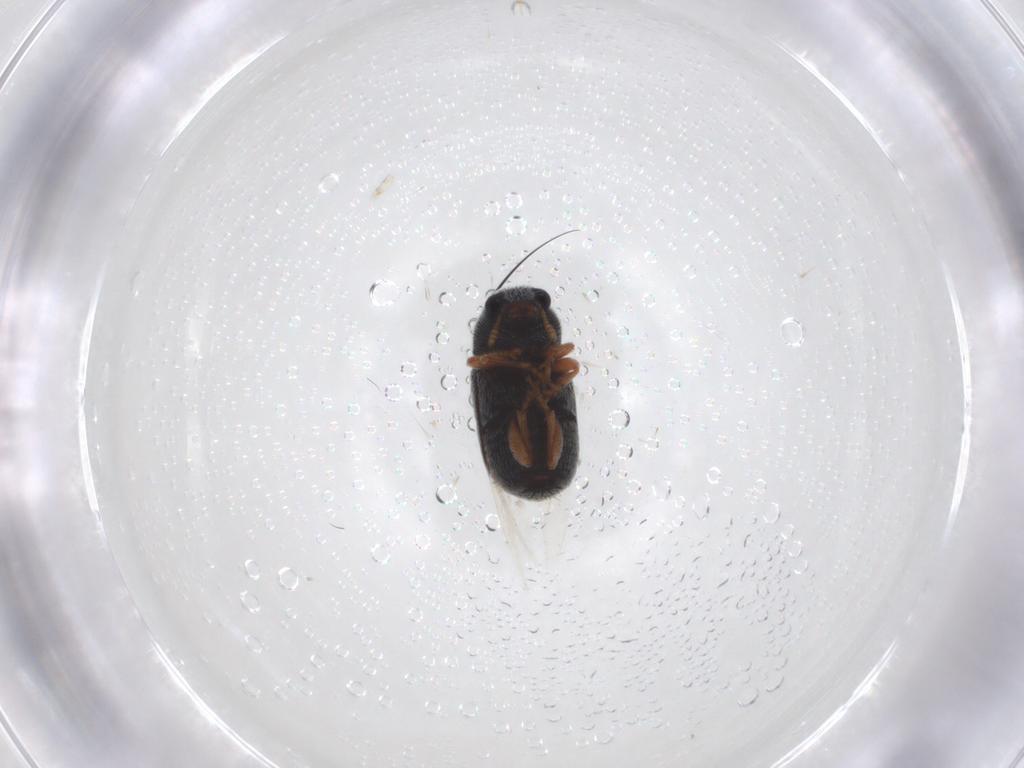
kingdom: Animalia
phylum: Arthropoda
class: Insecta
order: Coleoptera
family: Anthribidae
